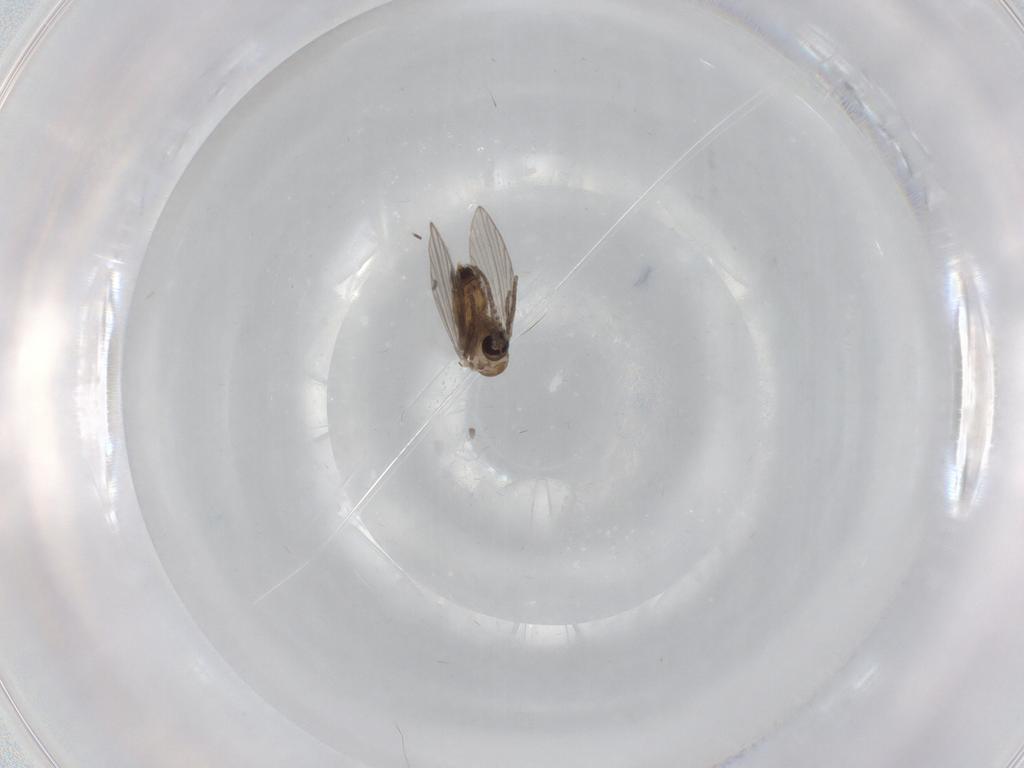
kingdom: Animalia
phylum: Arthropoda
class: Insecta
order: Diptera
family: Psychodidae
